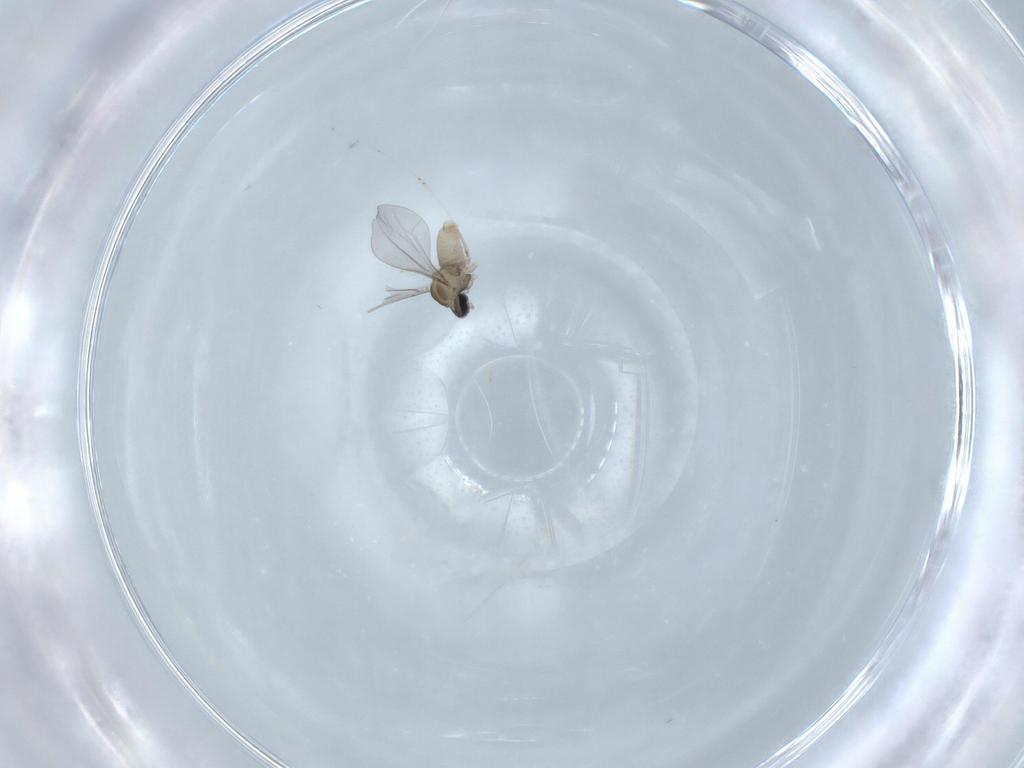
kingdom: Animalia
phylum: Arthropoda
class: Insecta
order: Diptera
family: Cecidomyiidae
